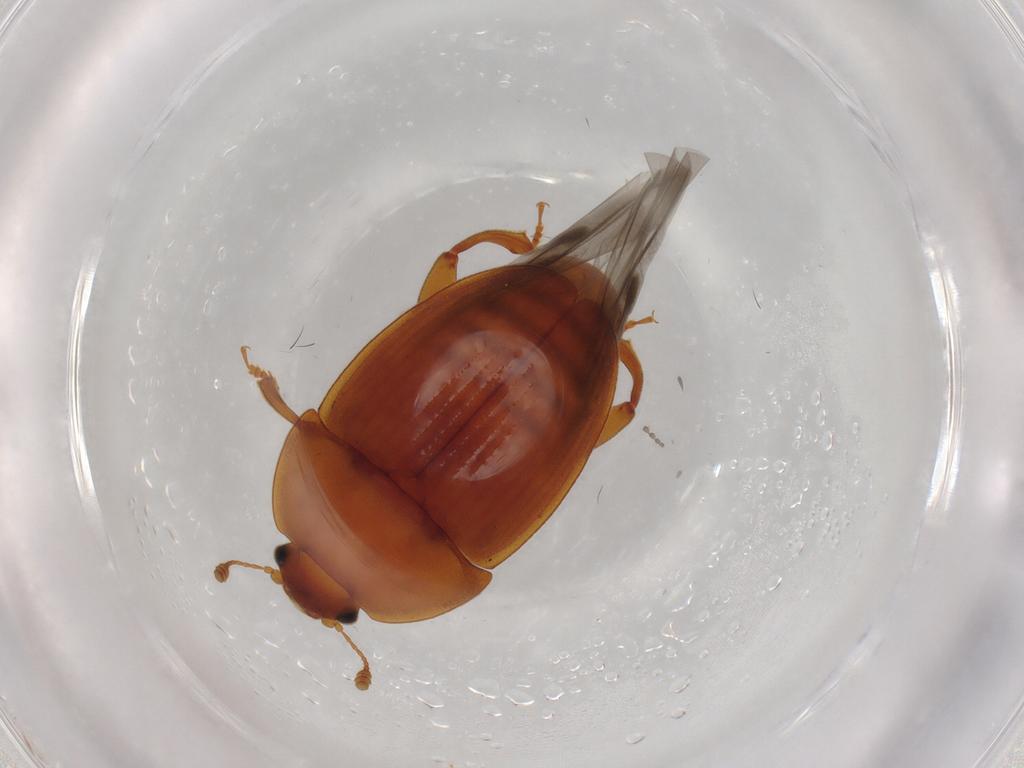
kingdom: Animalia
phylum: Arthropoda
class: Insecta
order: Coleoptera
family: Nitidulidae
